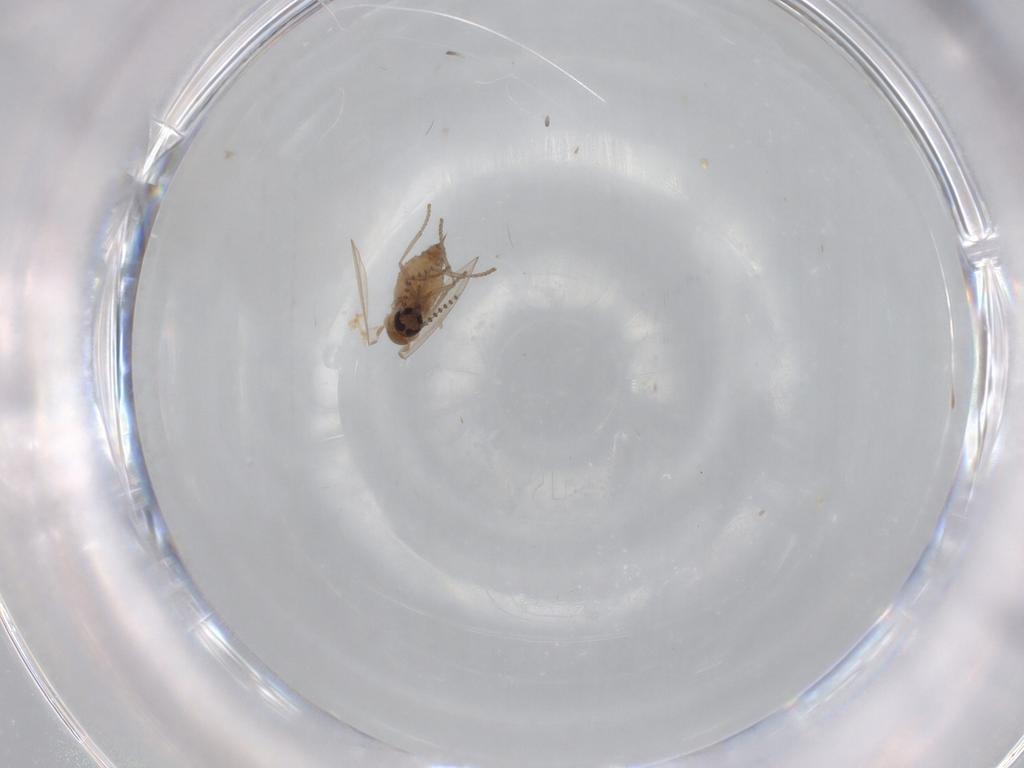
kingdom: Animalia
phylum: Arthropoda
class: Insecta
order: Diptera
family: Psychodidae
